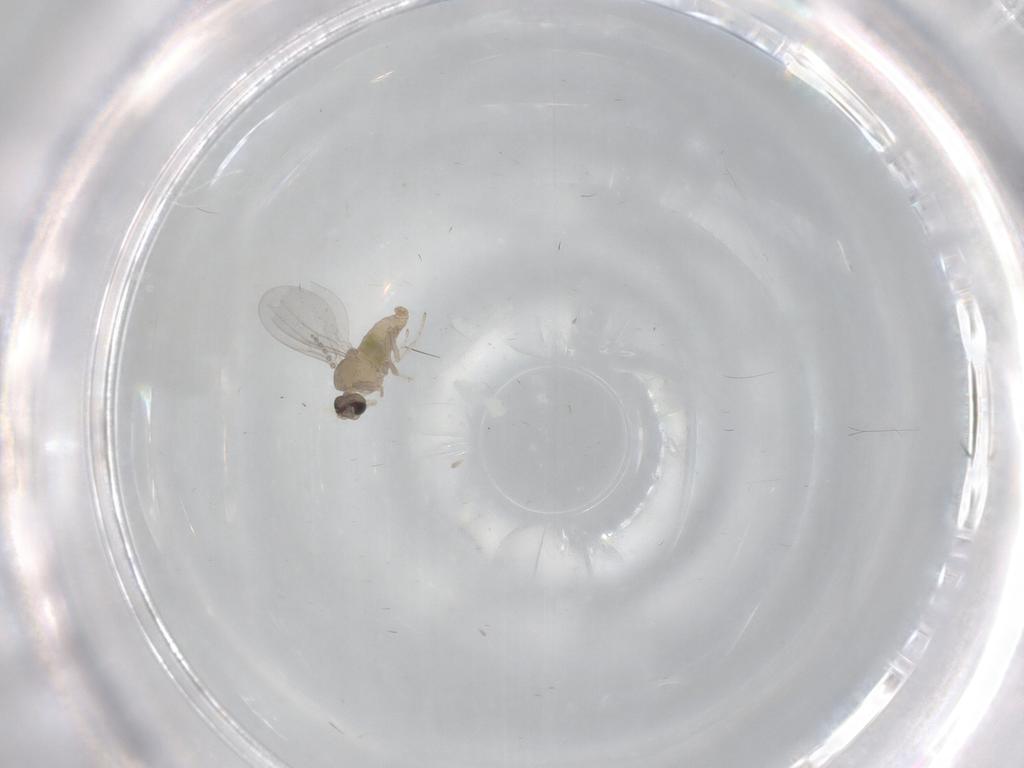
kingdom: Animalia
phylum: Arthropoda
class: Insecta
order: Diptera
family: Cecidomyiidae
